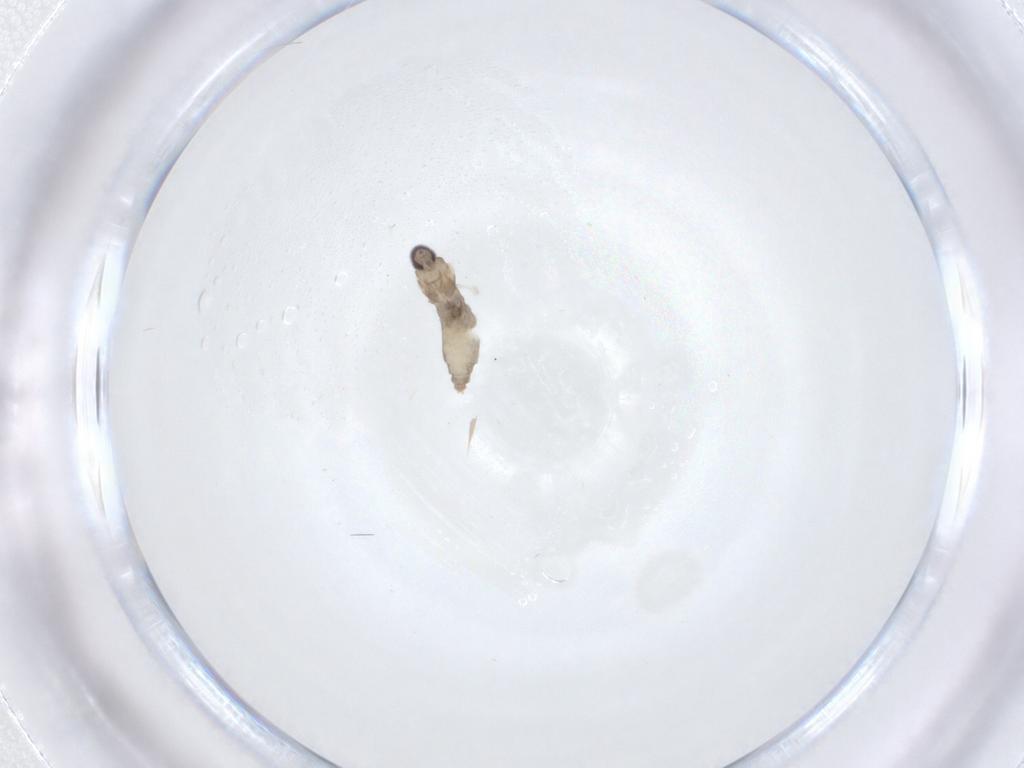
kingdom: Animalia
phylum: Arthropoda
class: Insecta
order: Diptera
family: Cecidomyiidae
